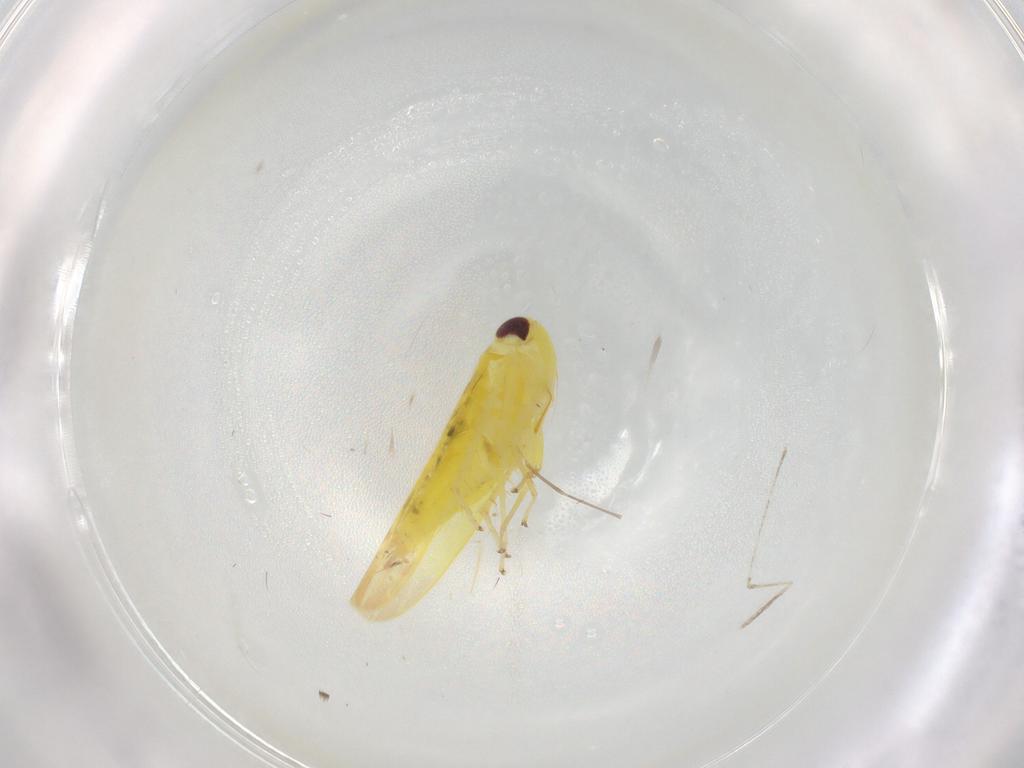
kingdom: Animalia
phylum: Arthropoda
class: Insecta
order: Hemiptera
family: Cicadellidae
